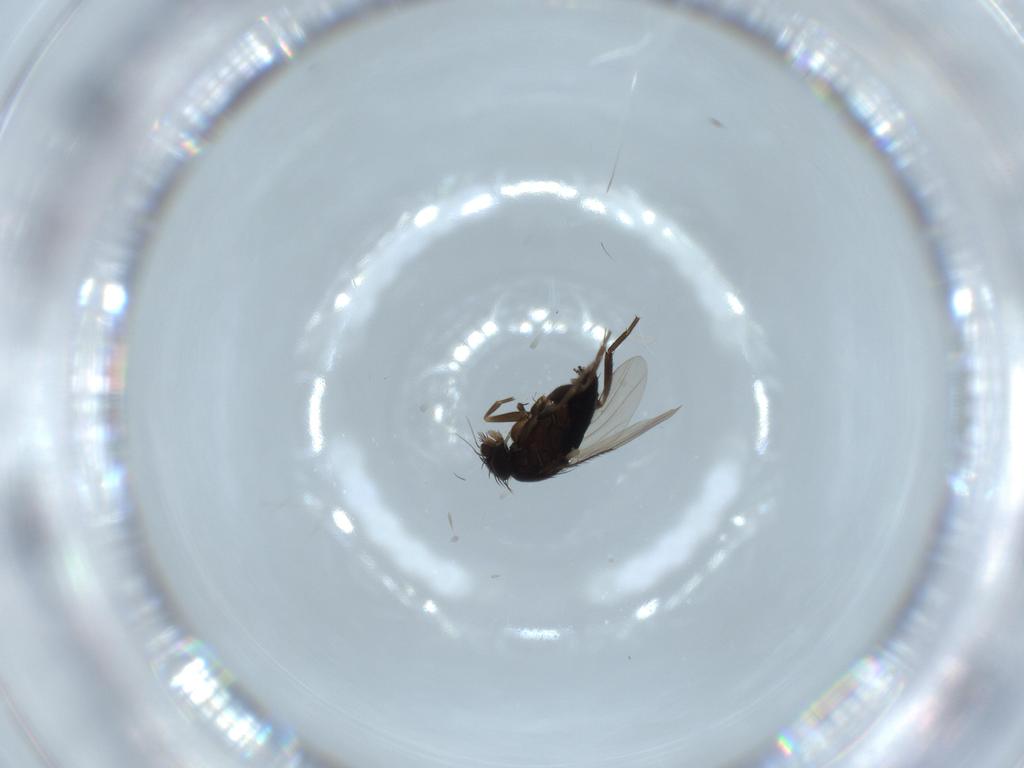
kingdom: Animalia
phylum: Arthropoda
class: Insecta
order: Diptera
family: Phoridae
